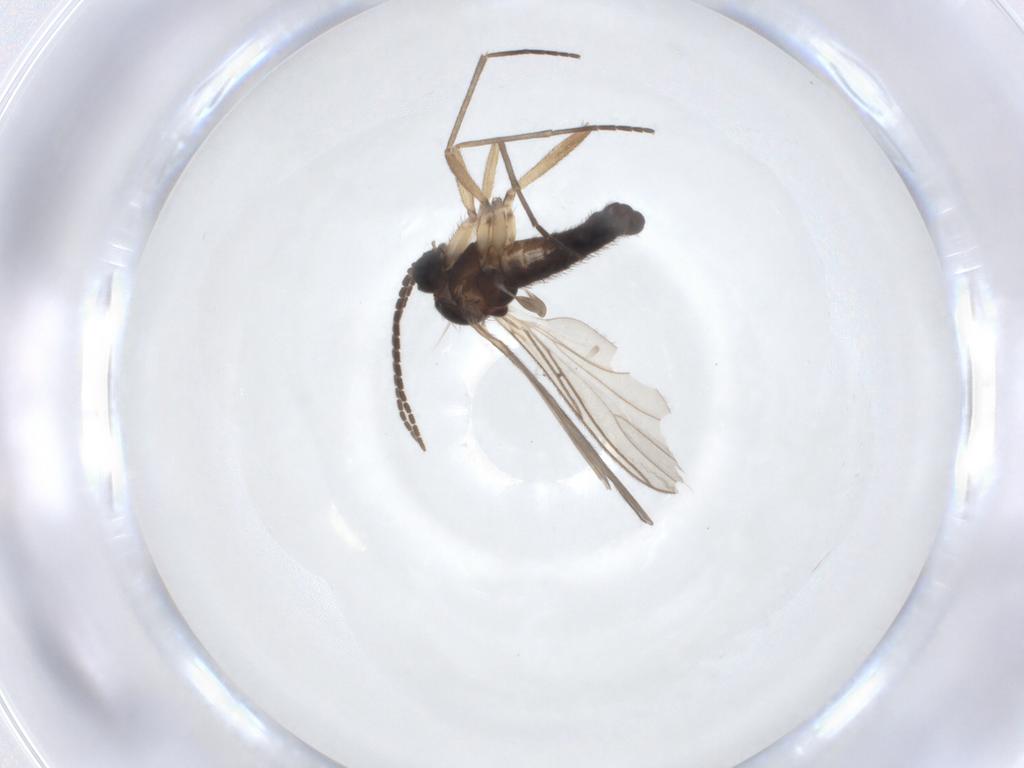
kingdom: Animalia
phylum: Arthropoda
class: Insecta
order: Diptera
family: Sciaridae
